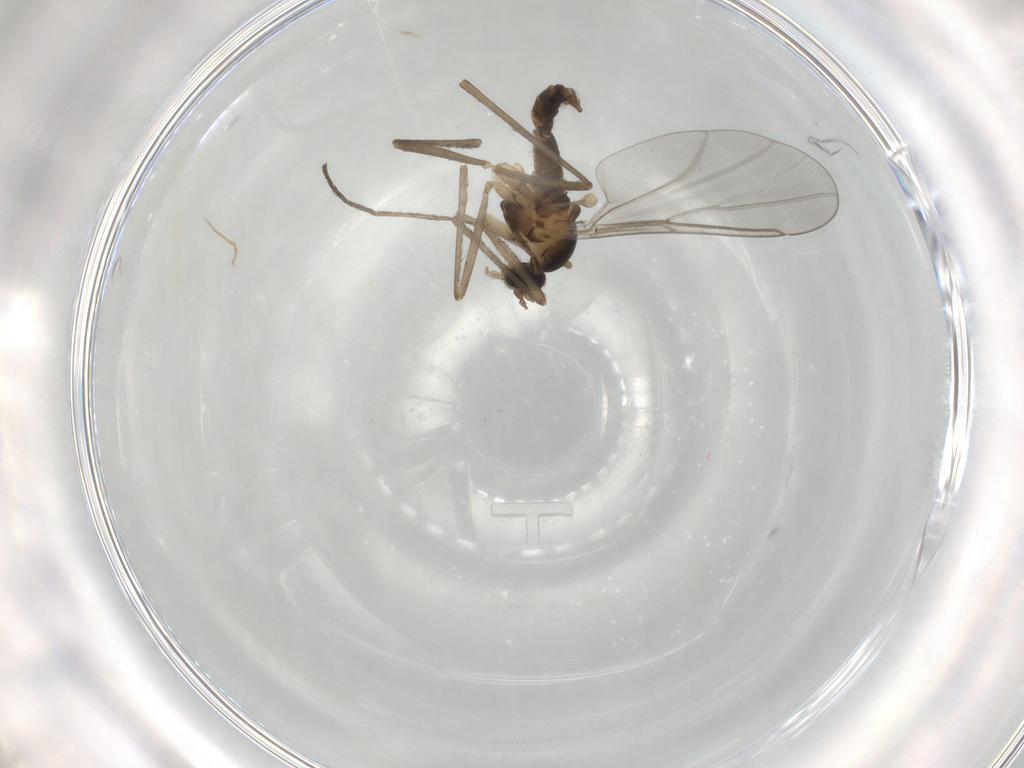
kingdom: Animalia
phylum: Arthropoda
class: Insecta
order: Diptera
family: Cecidomyiidae
